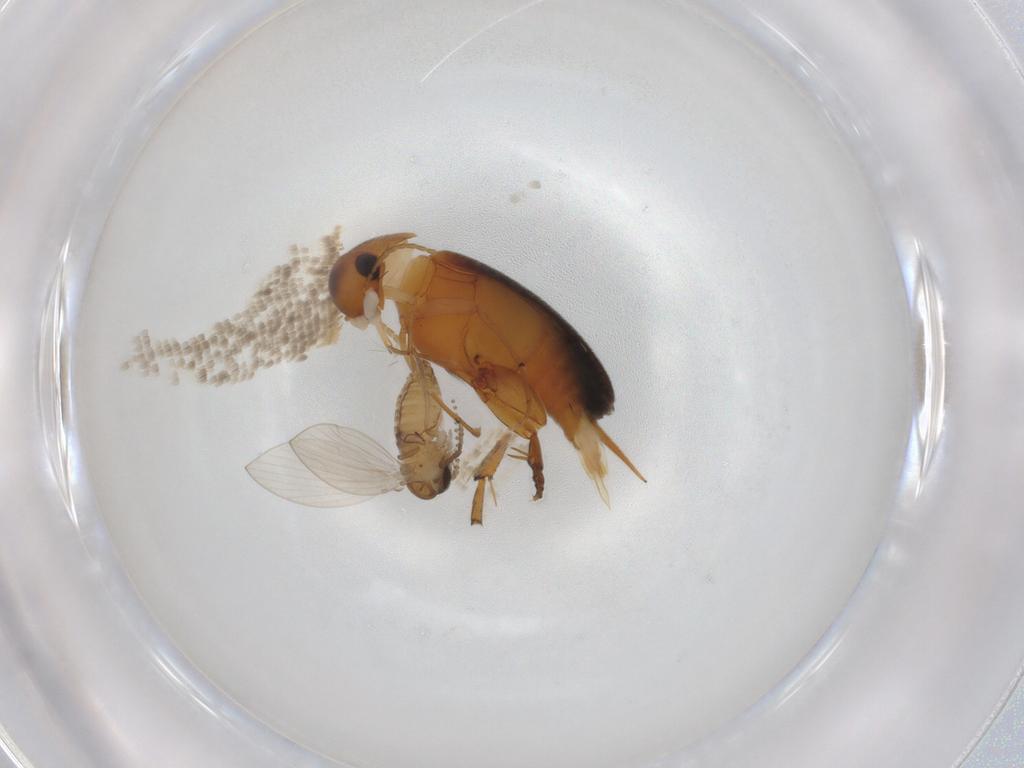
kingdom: Animalia
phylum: Arthropoda
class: Insecta
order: Coleoptera
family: Mordellidae
